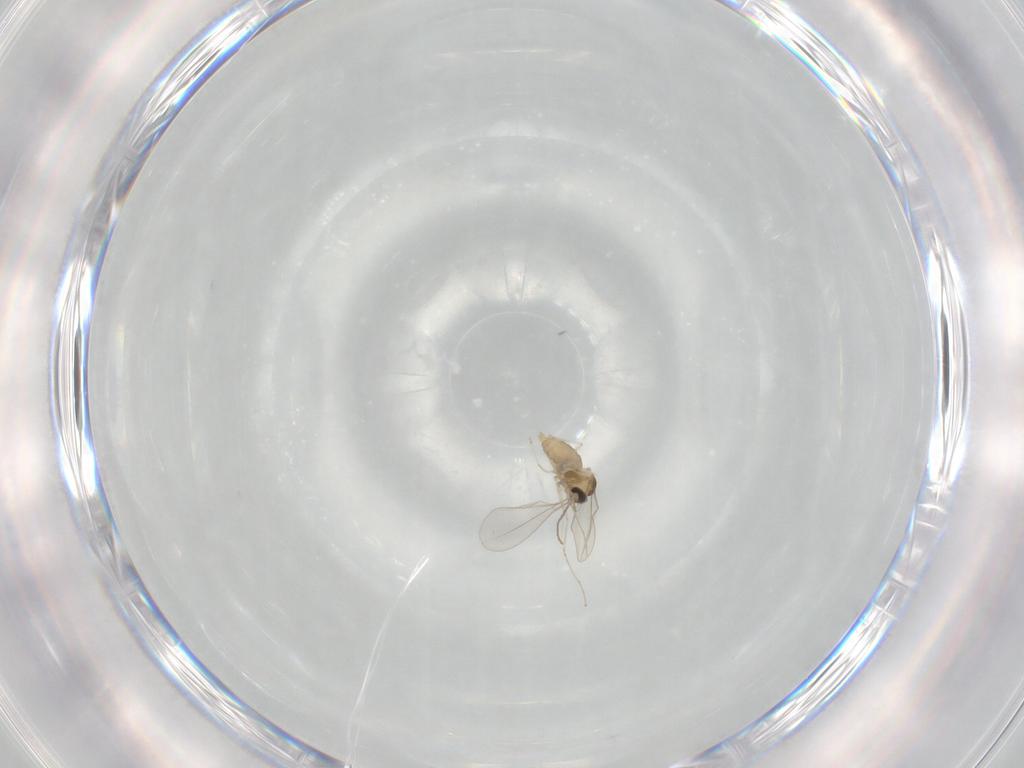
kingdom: Animalia
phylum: Arthropoda
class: Insecta
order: Diptera
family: Cecidomyiidae
